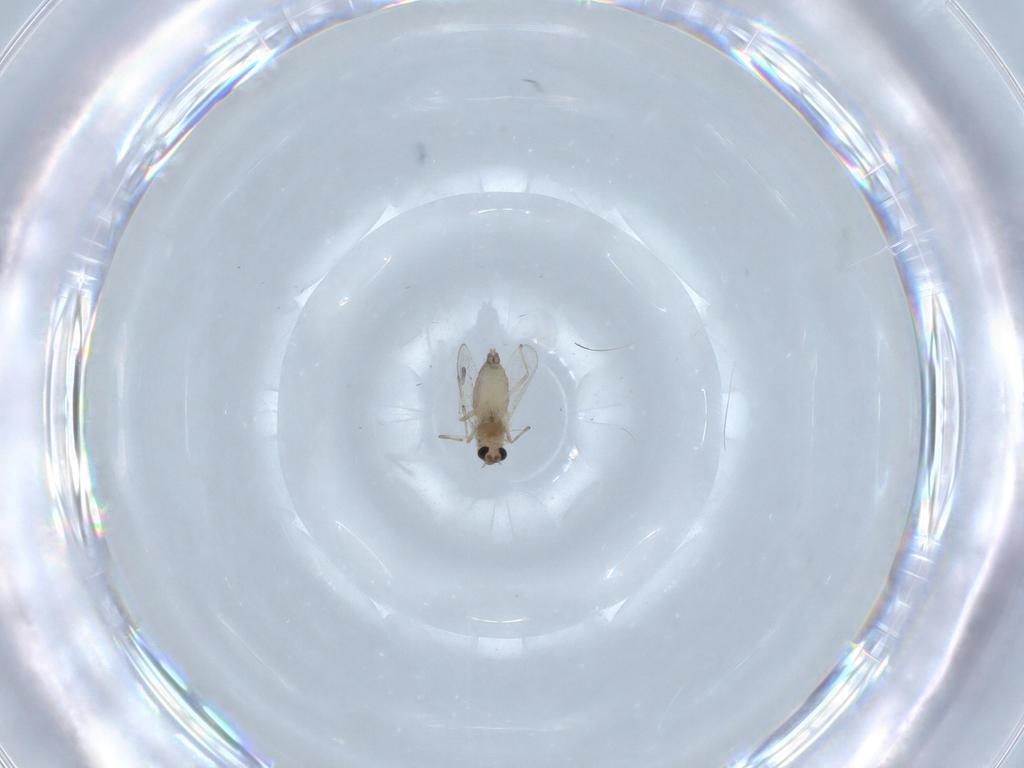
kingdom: Animalia
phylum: Arthropoda
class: Insecta
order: Diptera
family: Chironomidae
